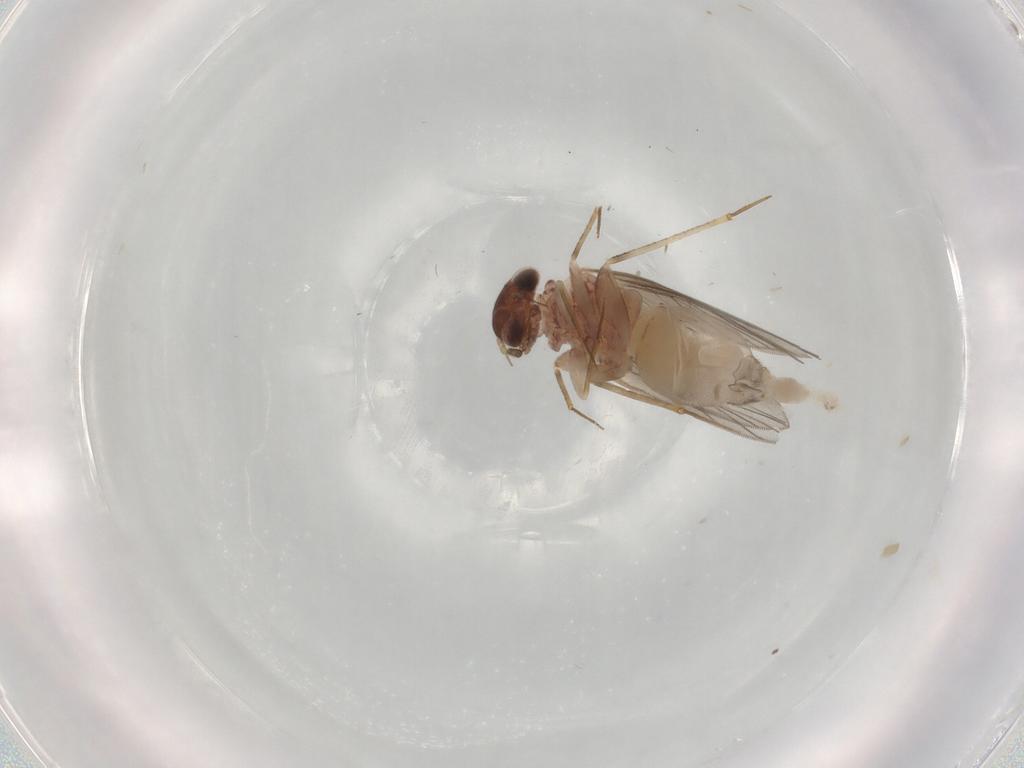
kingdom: Animalia
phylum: Arthropoda
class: Insecta
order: Psocodea
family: Lepidopsocidae
